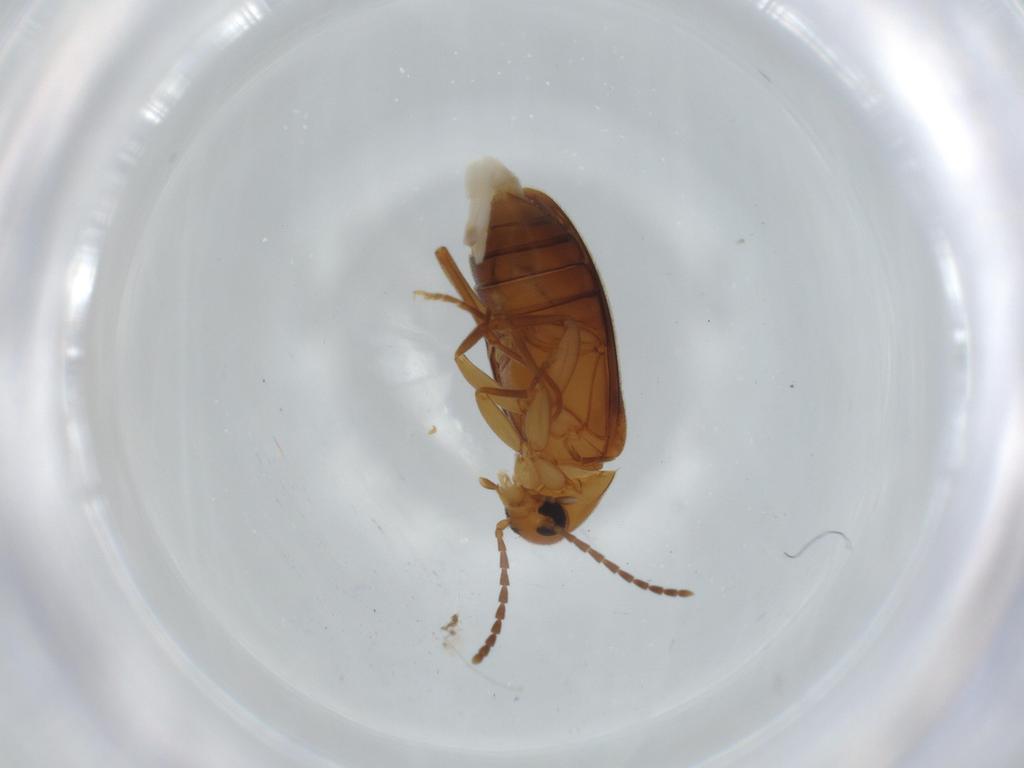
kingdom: Animalia
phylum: Arthropoda
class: Insecta
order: Coleoptera
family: Scraptiidae
